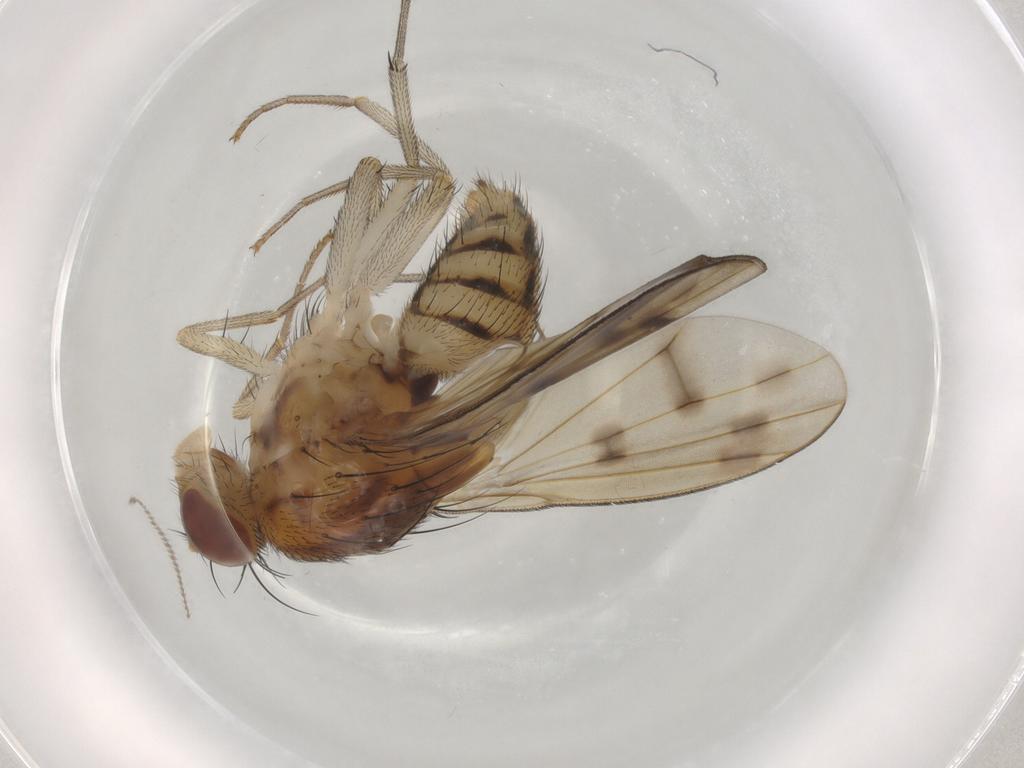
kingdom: Animalia
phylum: Arthropoda
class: Insecta
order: Diptera
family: Cecidomyiidae
